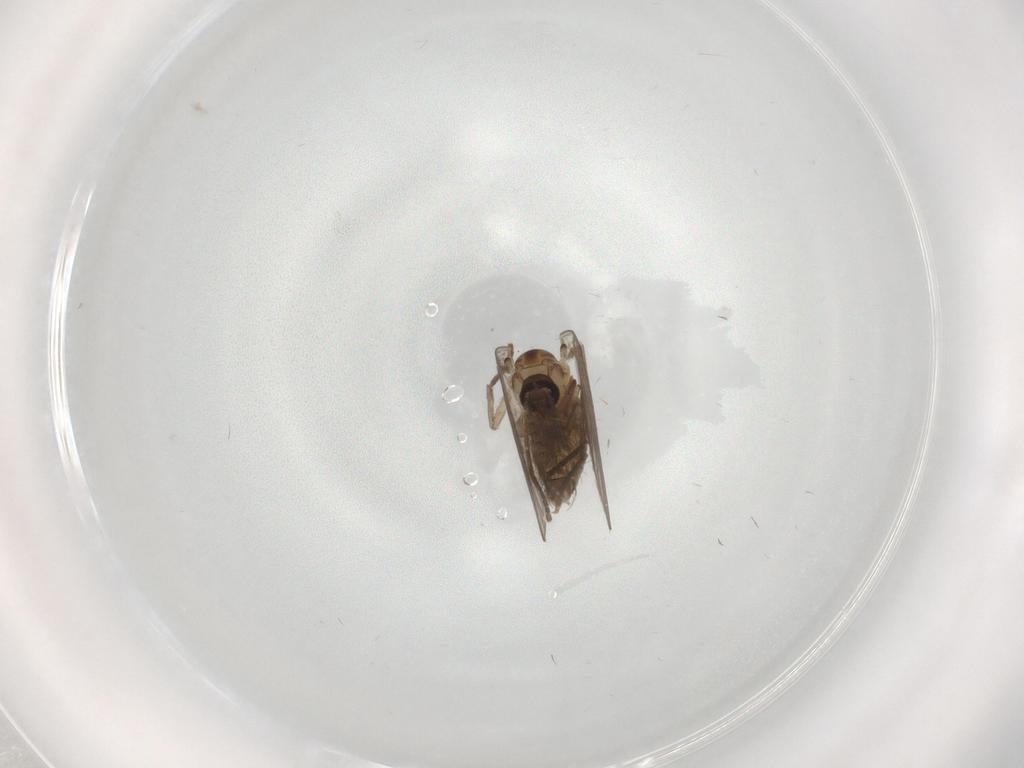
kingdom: Animalia
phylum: Arthropoda
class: Insecta
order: Diptera
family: Psychodidae
